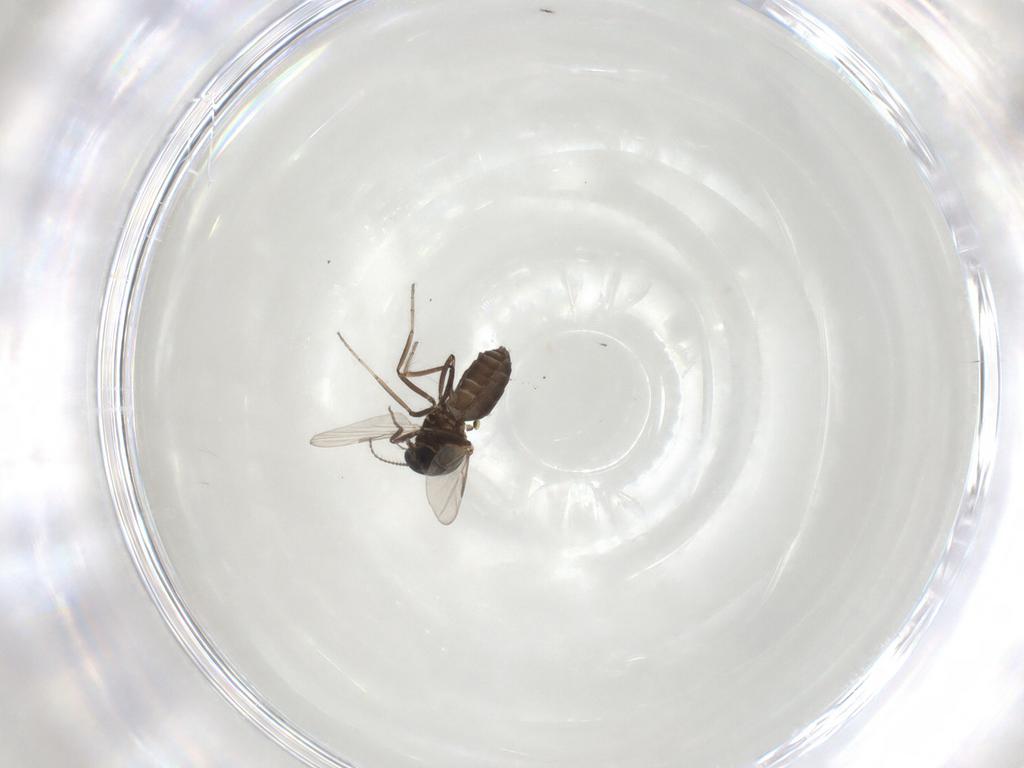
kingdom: Animalia
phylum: Arthropoda
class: Insecta
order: Diptera
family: Ceratopogonidae
